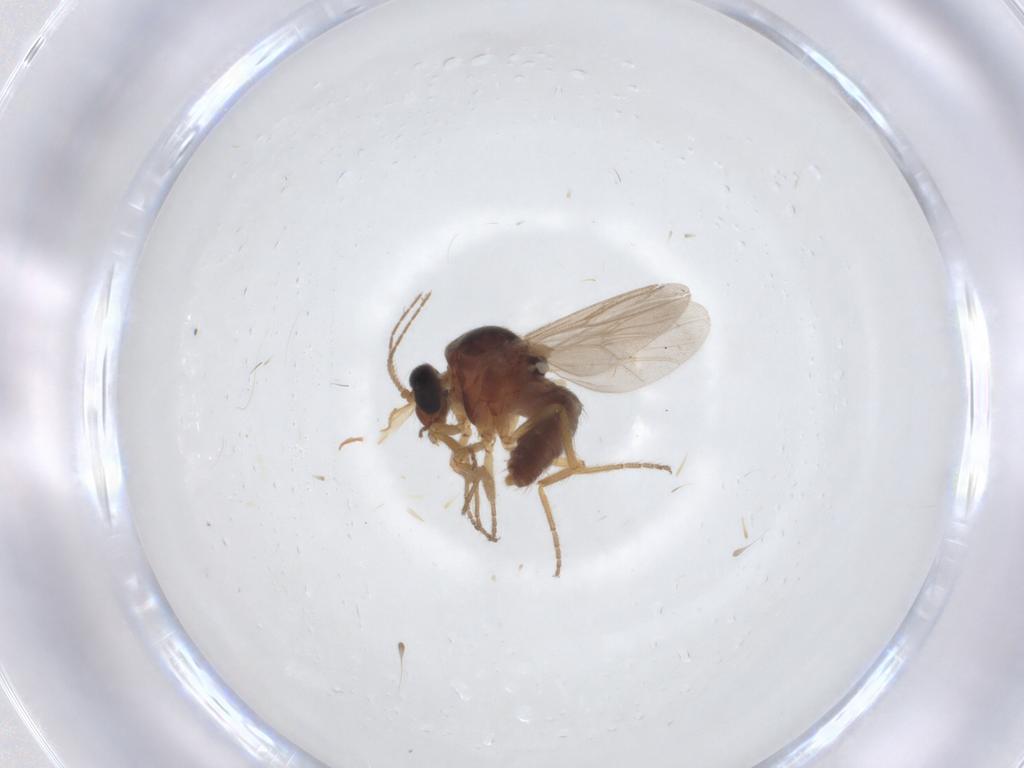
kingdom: Animalia
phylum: Arthropoda
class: Insecta
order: Diptera
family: Ceratopogonidae
